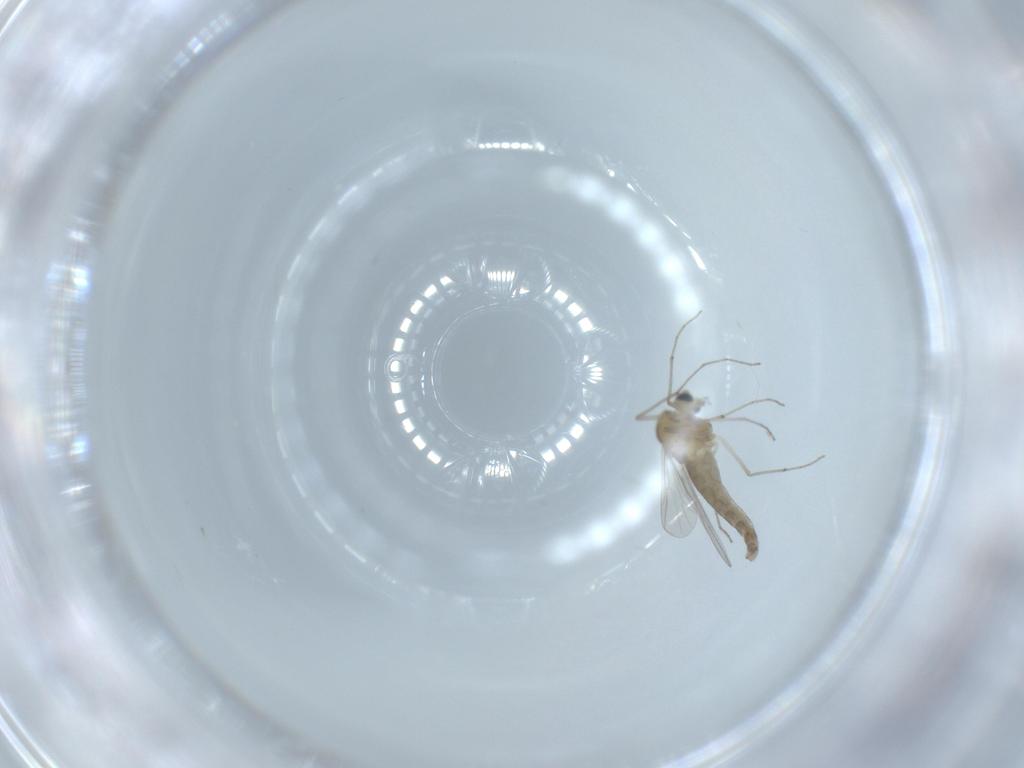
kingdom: Animalia
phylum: Arthropoda
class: Insecta
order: Diptera
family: Chironomidae
